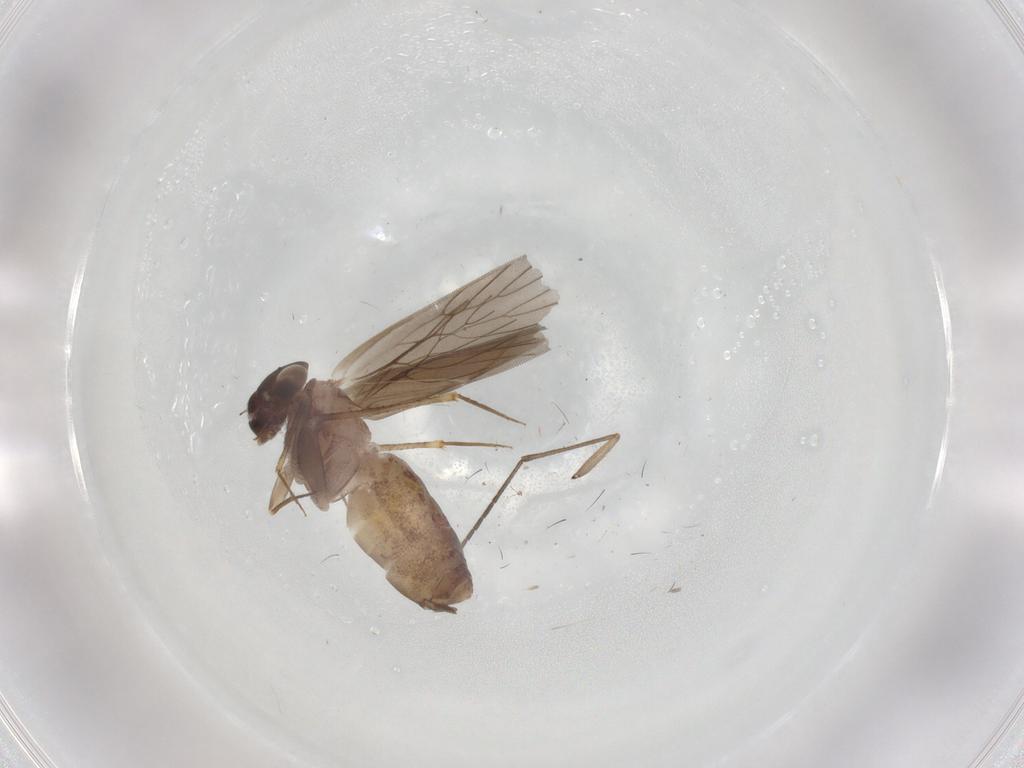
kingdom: Animalia
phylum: Arthropoda
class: Insecta
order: Psocodea
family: Lepidopsocidae
